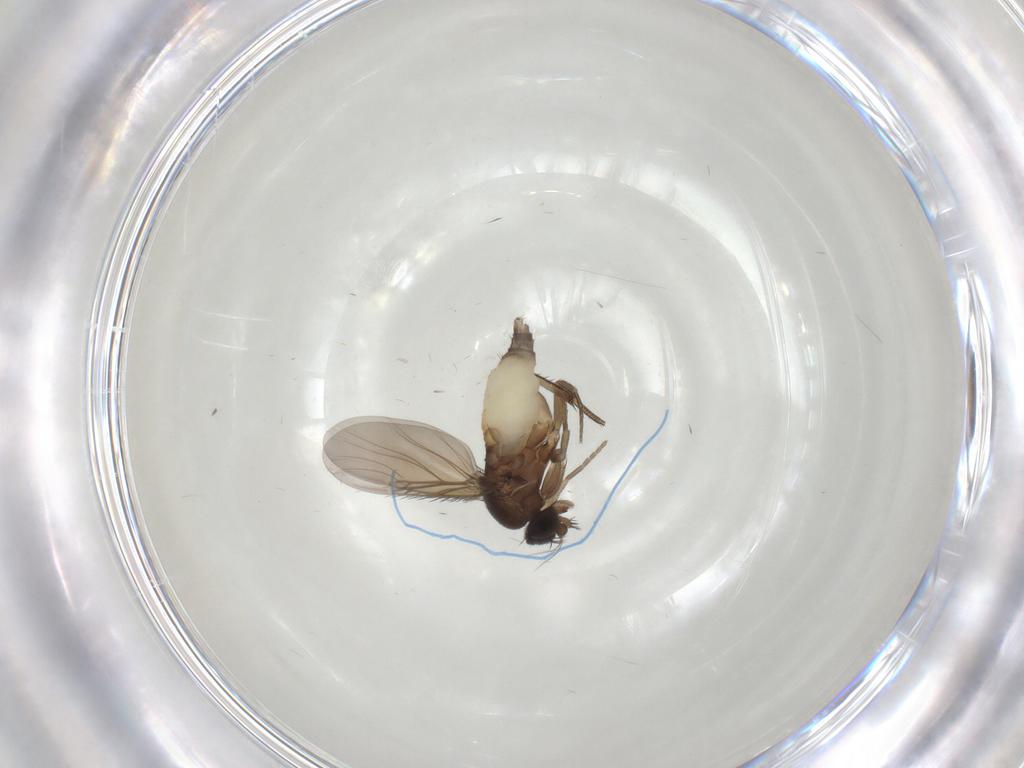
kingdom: Animalia
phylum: Arthropoda
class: Insecta
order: Diptera
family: Phoridae
